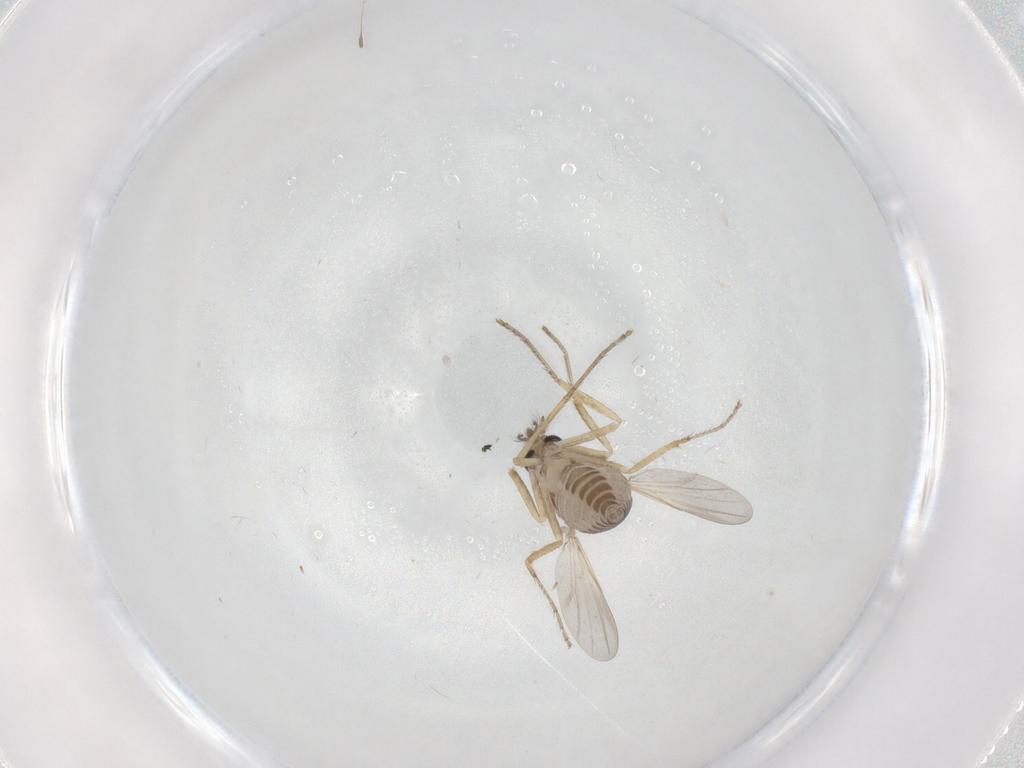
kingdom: Animalia
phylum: Arthropoda
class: Insecta
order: Diptera
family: Ceratopogonidae
